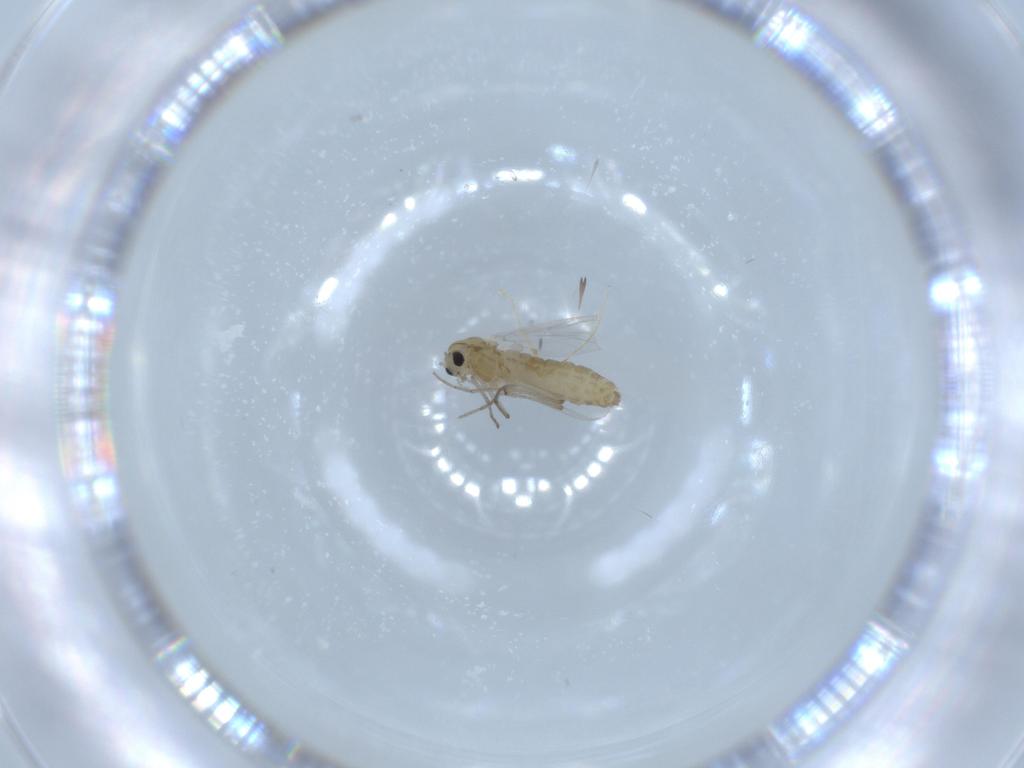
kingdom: Animalia
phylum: Arthropoda
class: Insecta
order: Diptera
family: Chironomidae
